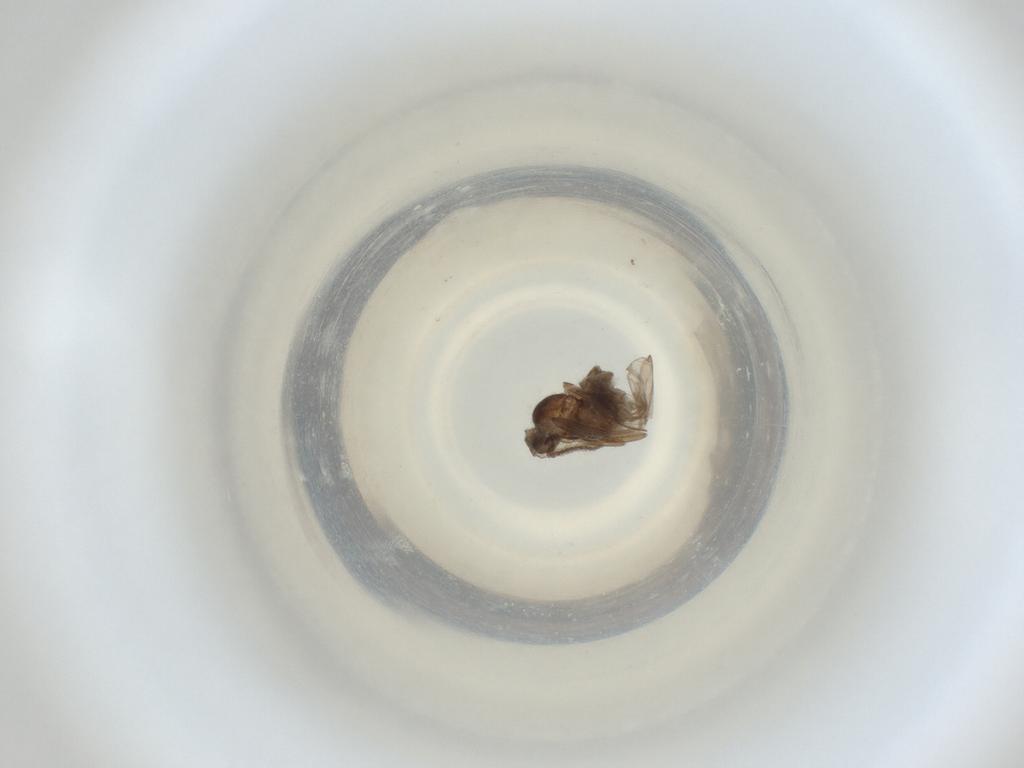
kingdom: Animalia
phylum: Arthropoda
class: Insecta
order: Diptera
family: Cecidomyiidae
